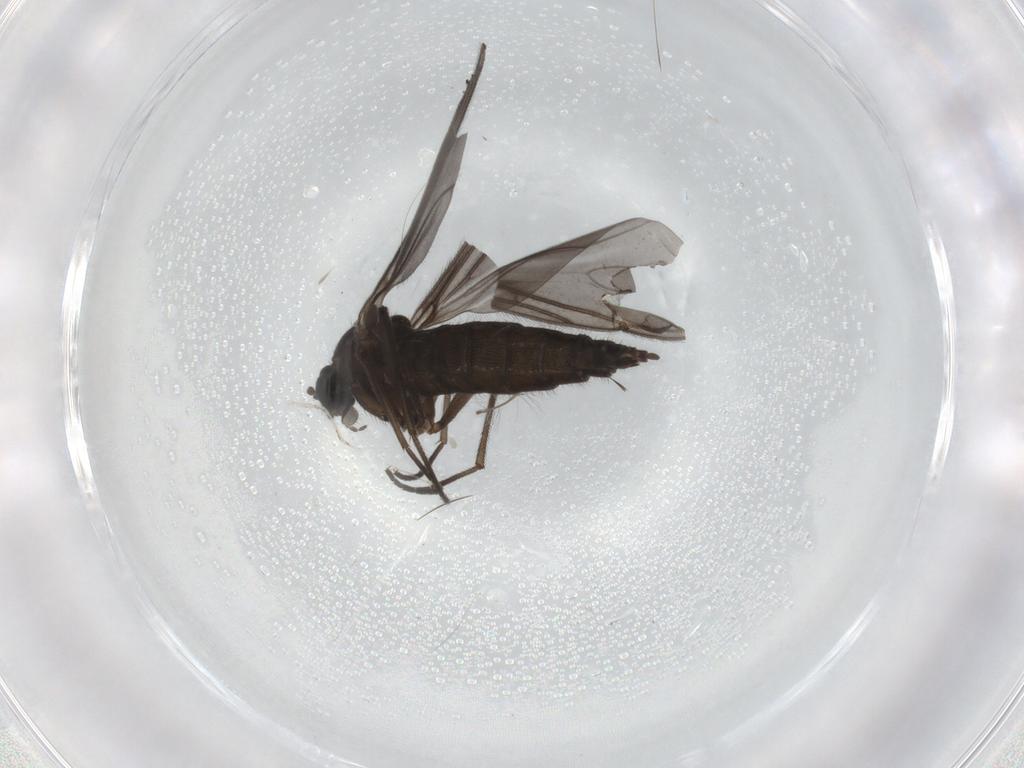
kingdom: Animalia
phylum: Arthropoda
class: Insecta
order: Diptera
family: Sciaridae
